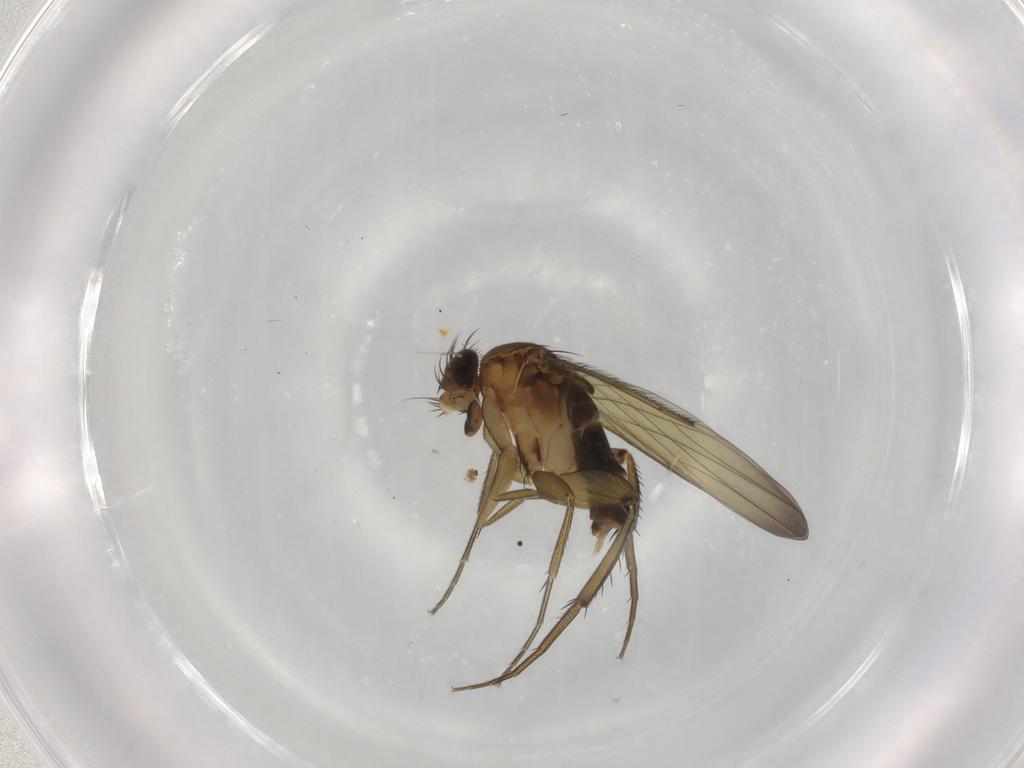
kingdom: Animalia
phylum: Arthropoda
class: Insecta
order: Diptera
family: Phoridae
